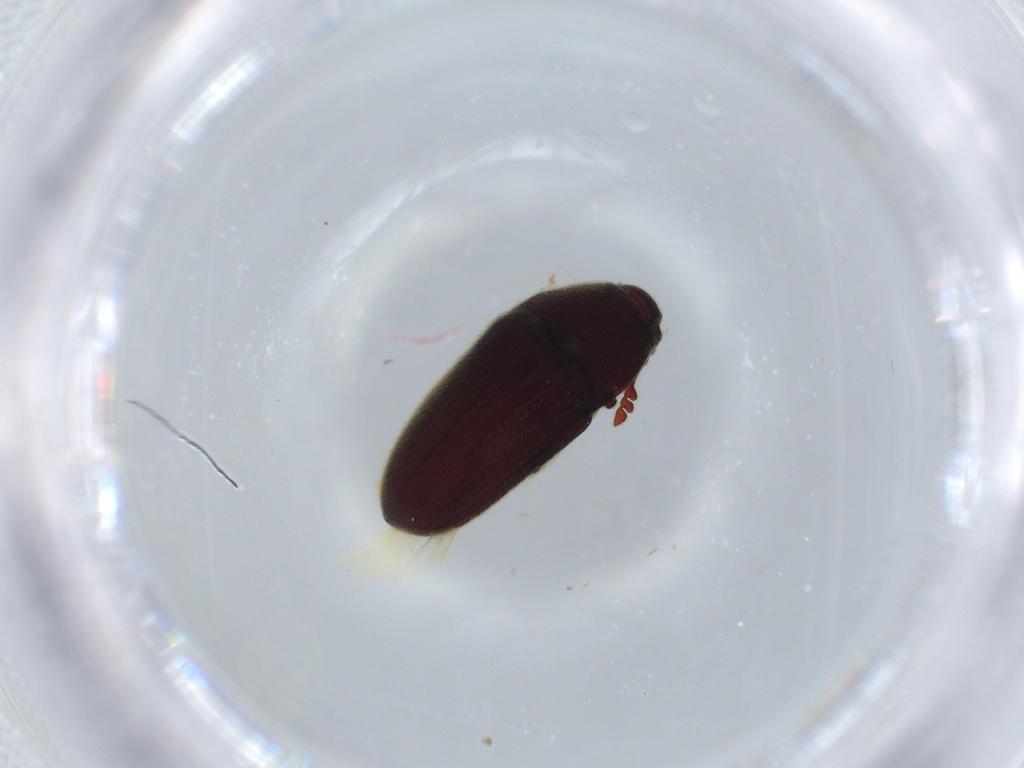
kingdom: Animalia
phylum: Arthropoda
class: Insecta
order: Coleoptera
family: Throscidae
